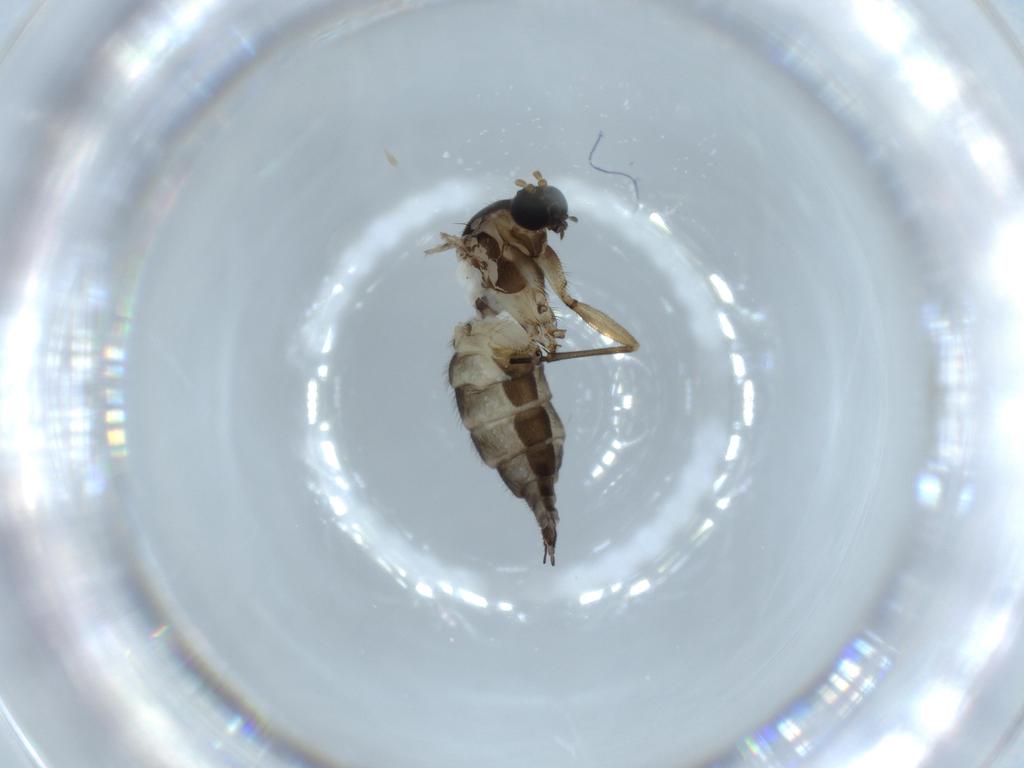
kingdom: Animalia
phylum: Arthropoda
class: Insecta
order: Diptera
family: Sciaridae
